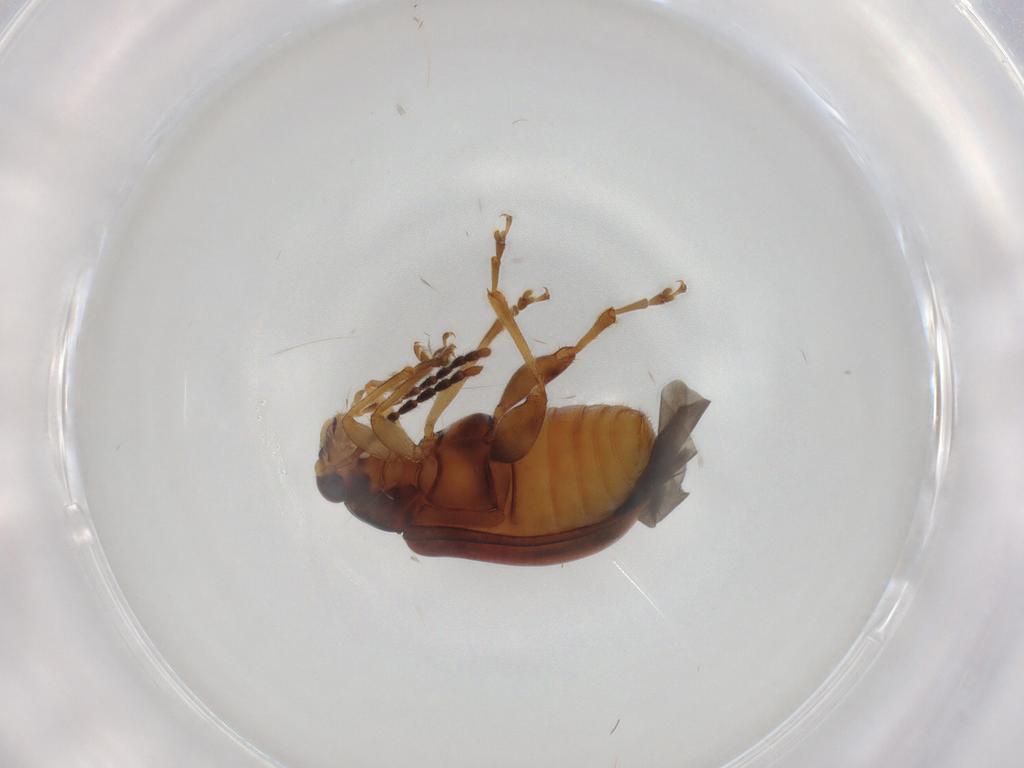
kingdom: Animalia
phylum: Arthropoda
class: Insecta
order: Coleoptera
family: Chrysomelidae
